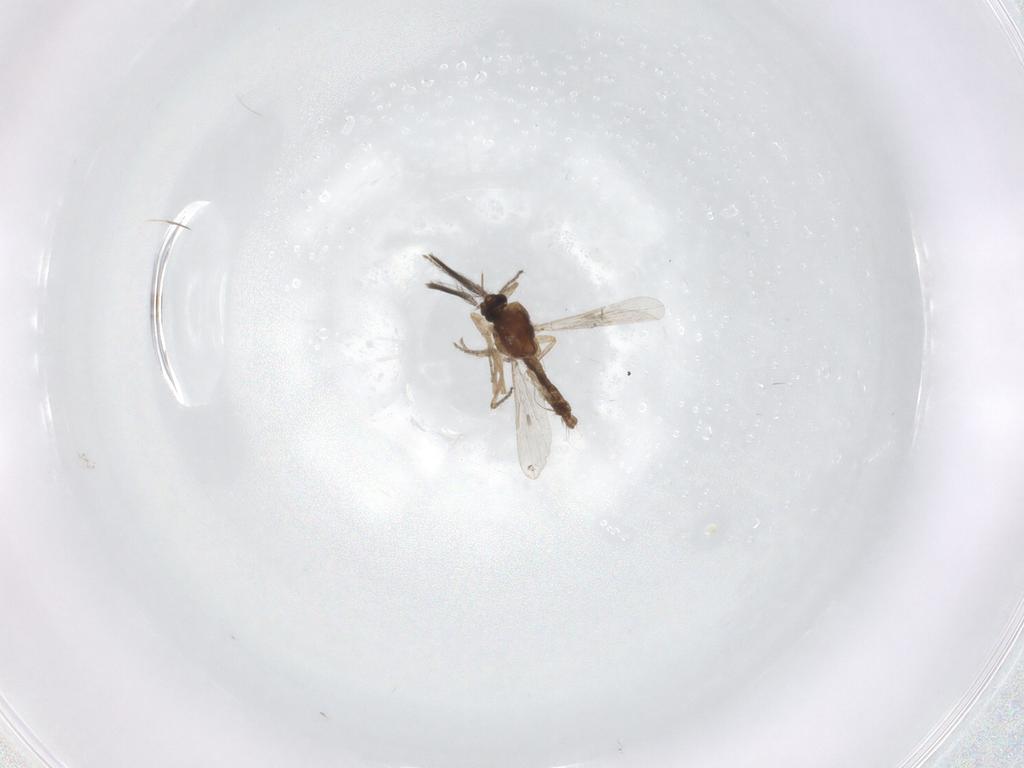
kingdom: Animalia
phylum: Arthropoda
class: Insecta
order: Diptera
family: Ceratopogonidae
